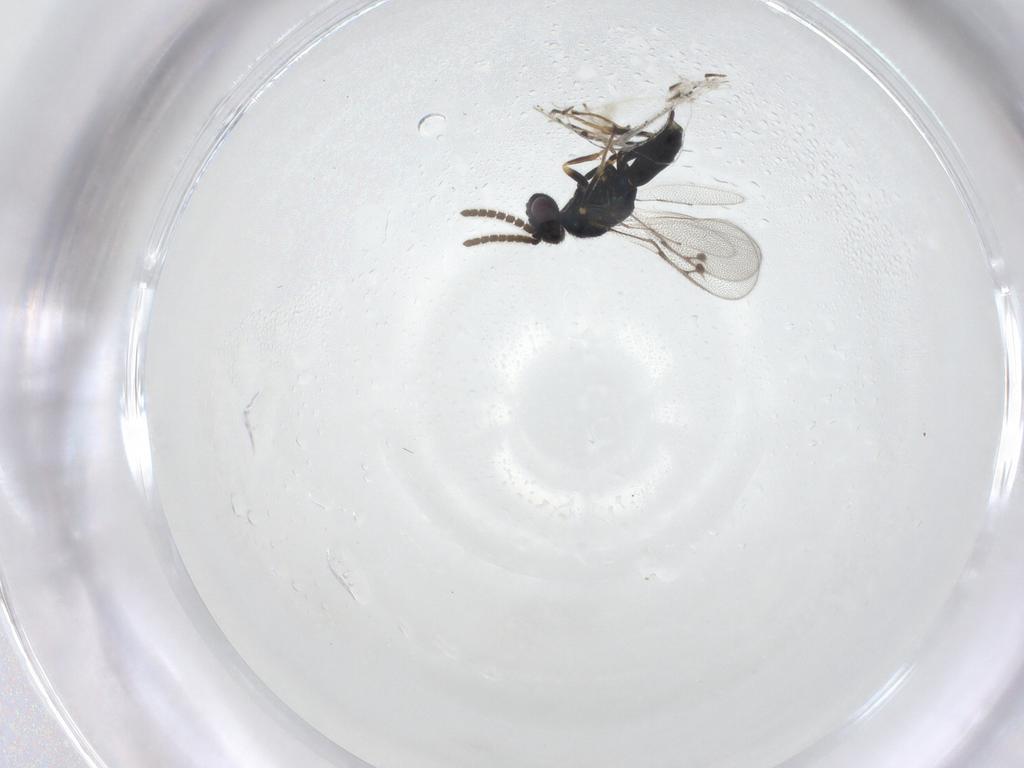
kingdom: Animalia
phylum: Arthropoda
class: Insecta
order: Hymenoptera
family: Pirenidae
